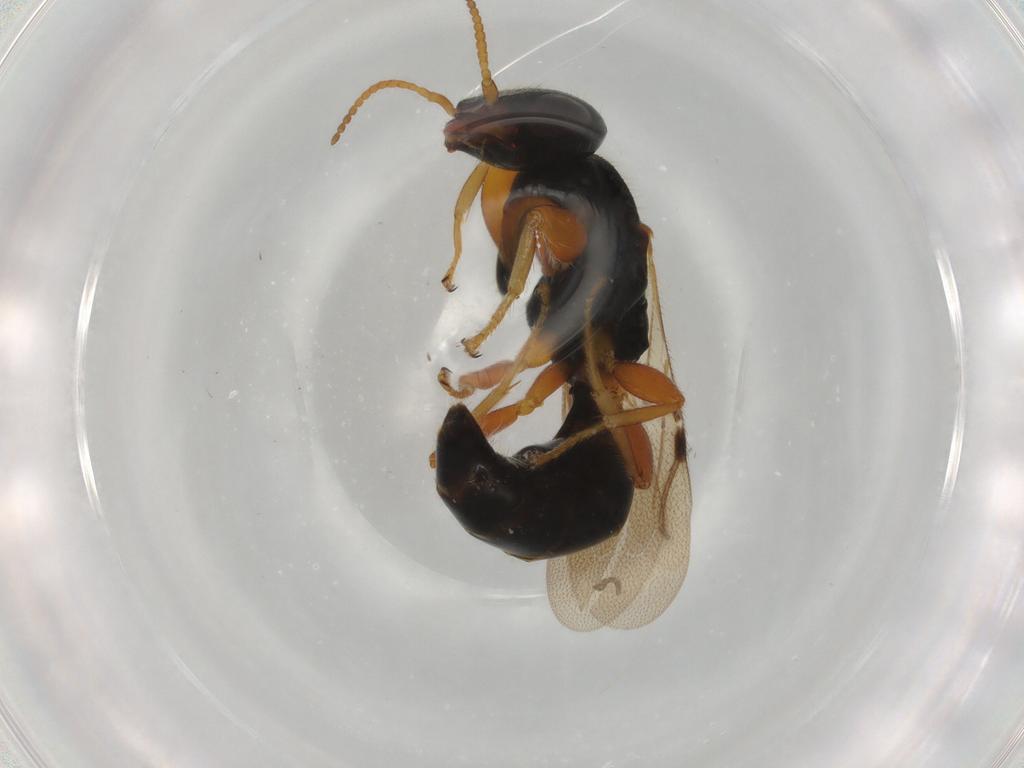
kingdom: Animalia
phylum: Arthropoda
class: Insecta
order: Hymenoptera
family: Bethylidae
